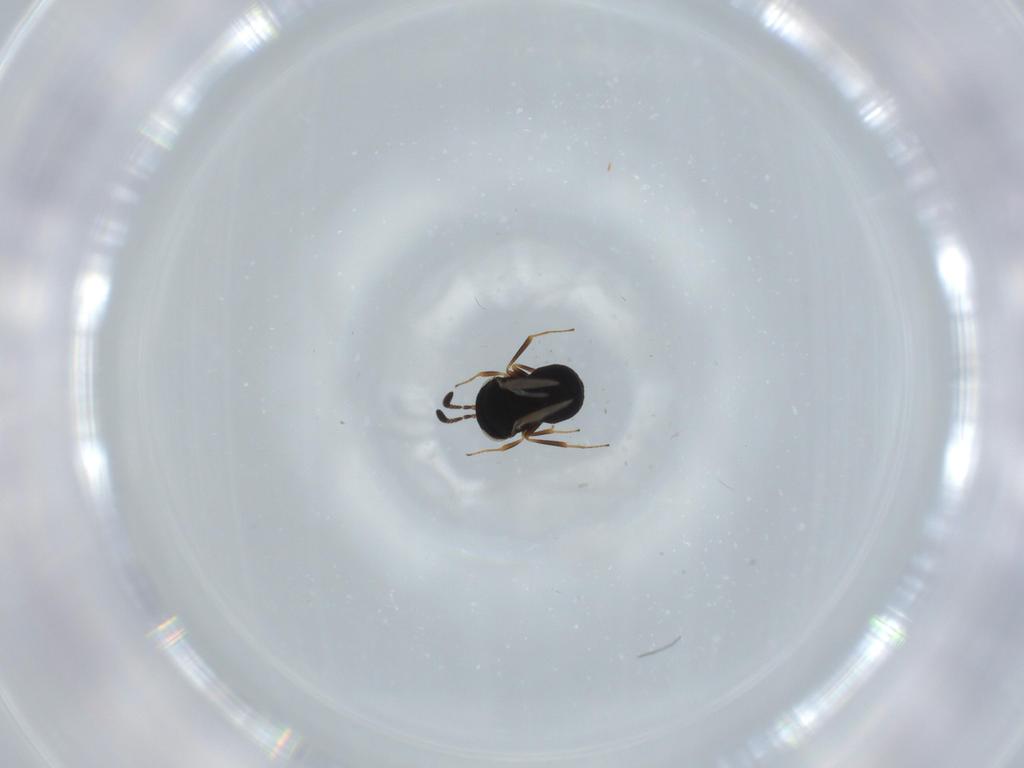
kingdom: Animalia
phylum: Arthropoda
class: Insecta
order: Hymenoptera
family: Scelionidae
